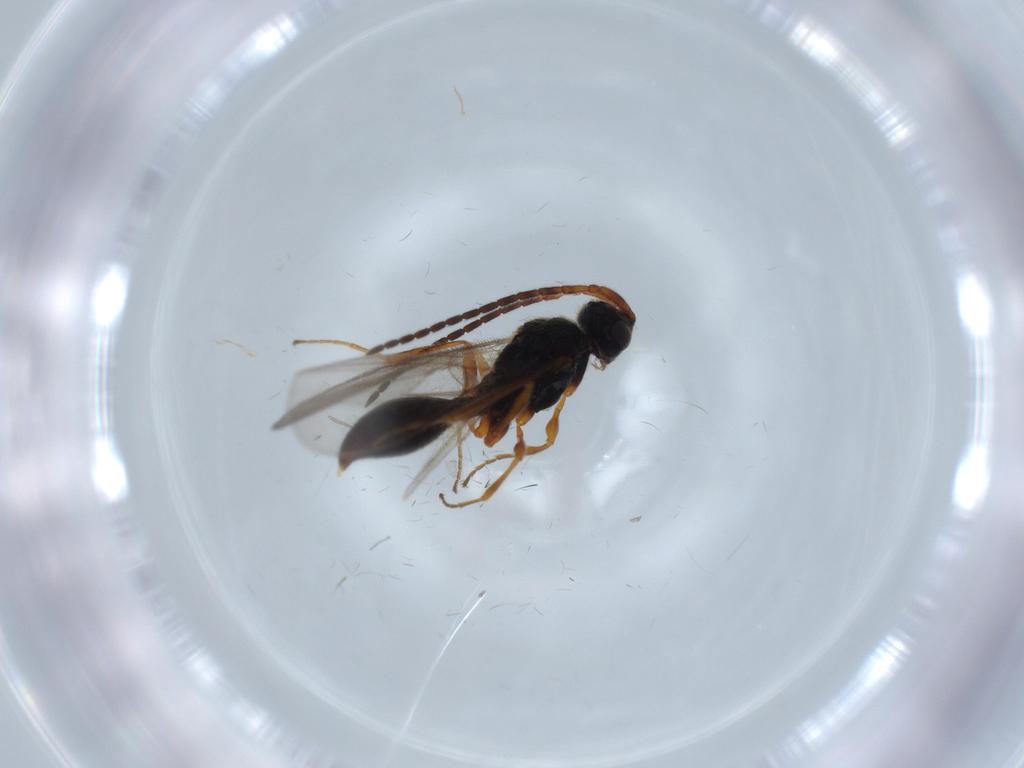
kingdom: Animalia
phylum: Arthropoda
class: Insecta
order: Hymenoptera
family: Diapriidae
